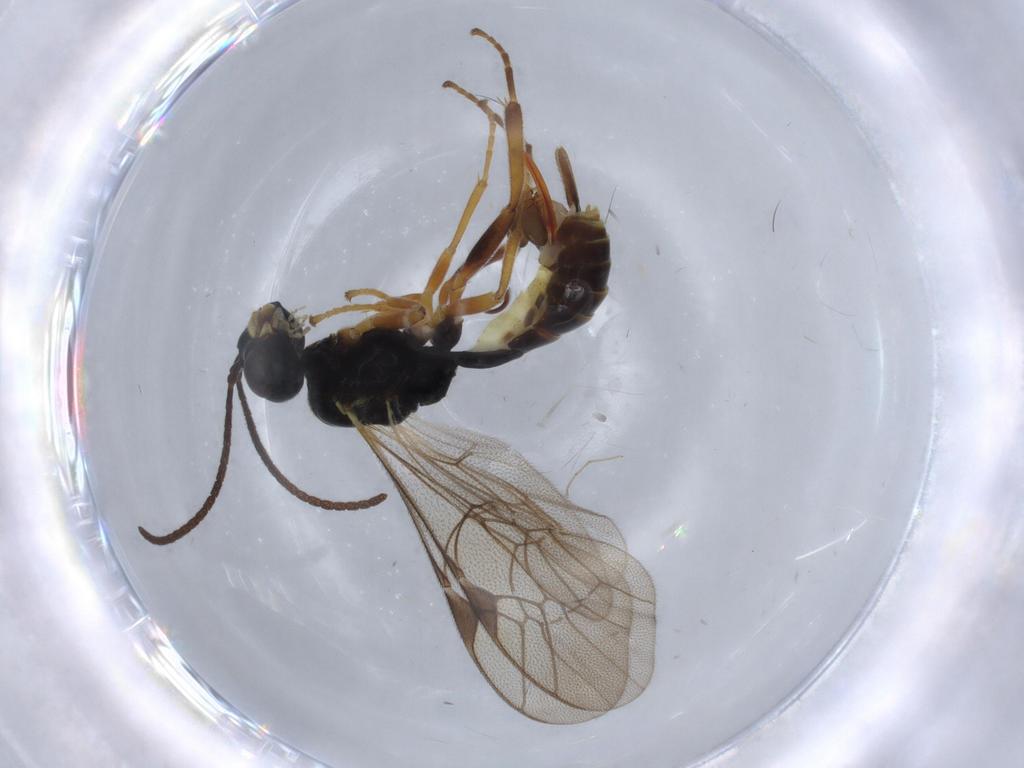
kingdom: Animalia
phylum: Arthropoda
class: Insecta
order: Hymenoptera
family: Ichneumonidae
